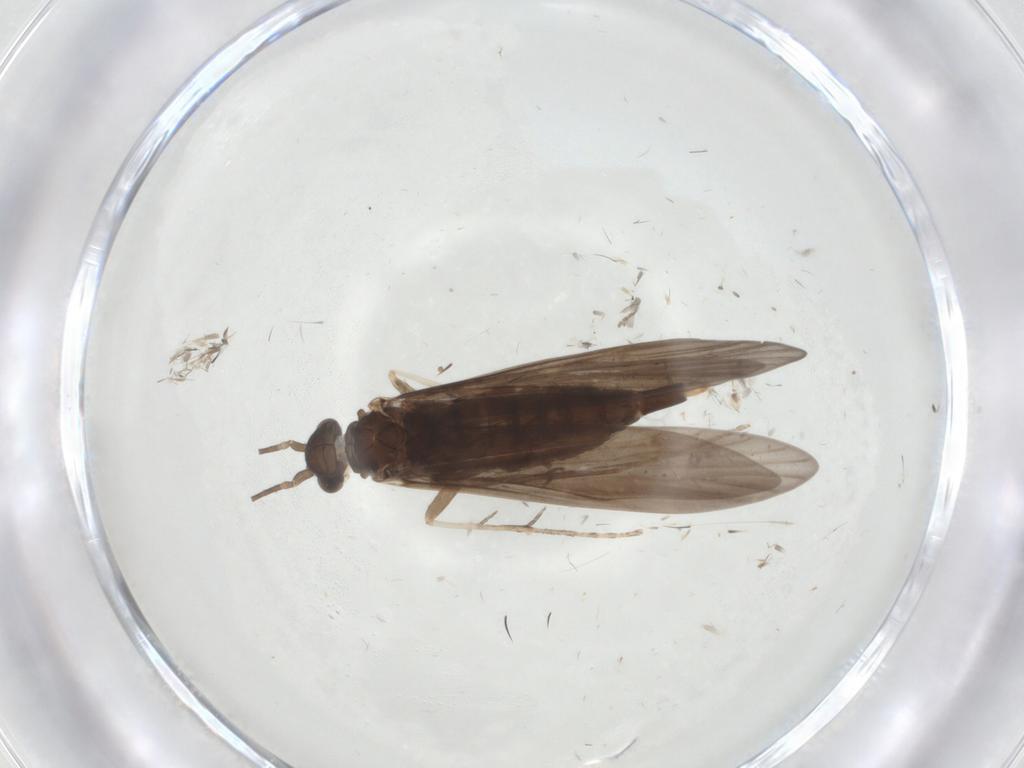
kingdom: Animalia
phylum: Arthropoda
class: Insecta
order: Trichoptera
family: Xiphocentronidae
